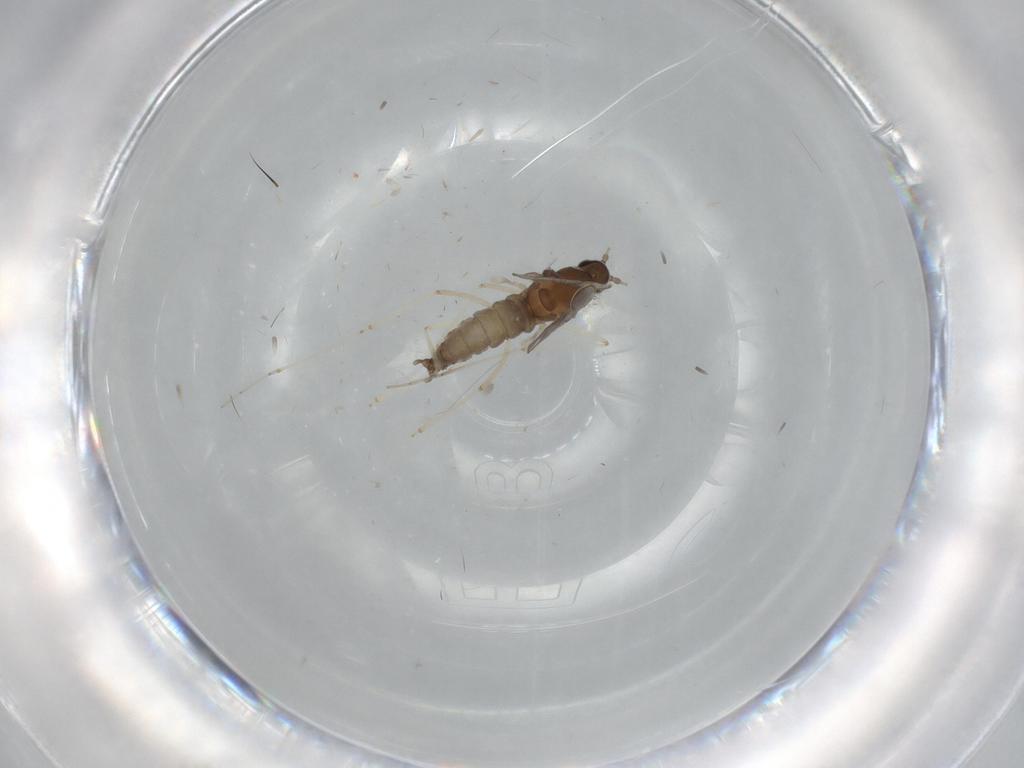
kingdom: Animalia
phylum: Arthropoda
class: Insecta
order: Diptera
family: Cecidomyiidae
